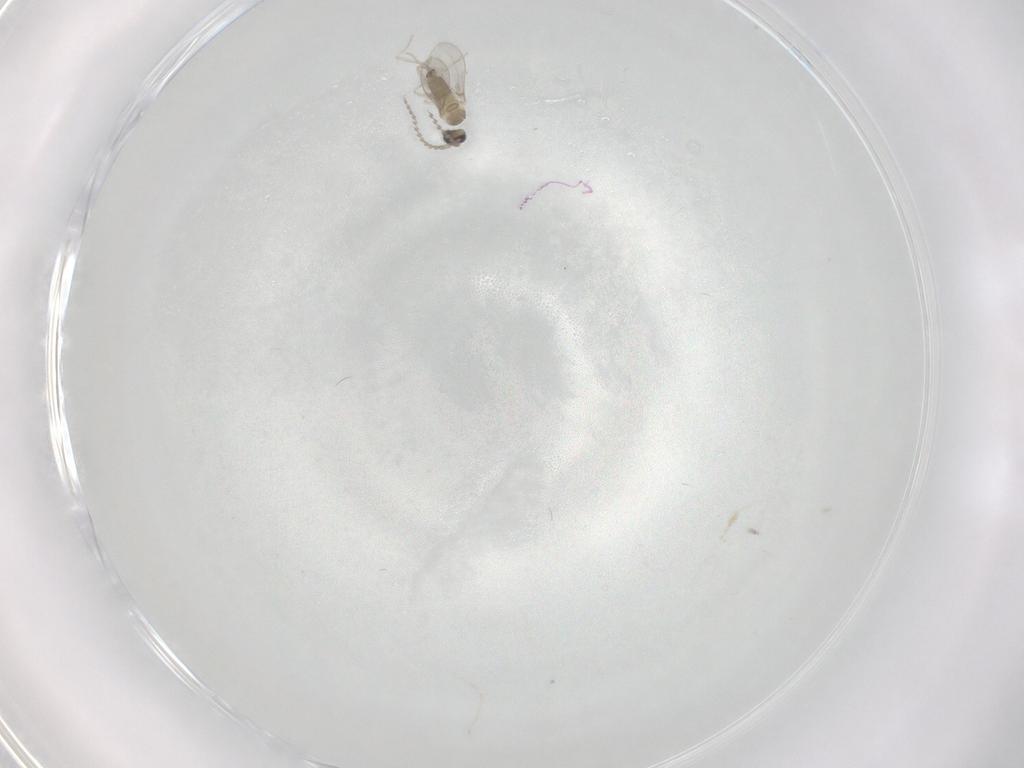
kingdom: Animalia
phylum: Arthropoda
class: Insecta
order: Diptera
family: Cecidomyiidae
